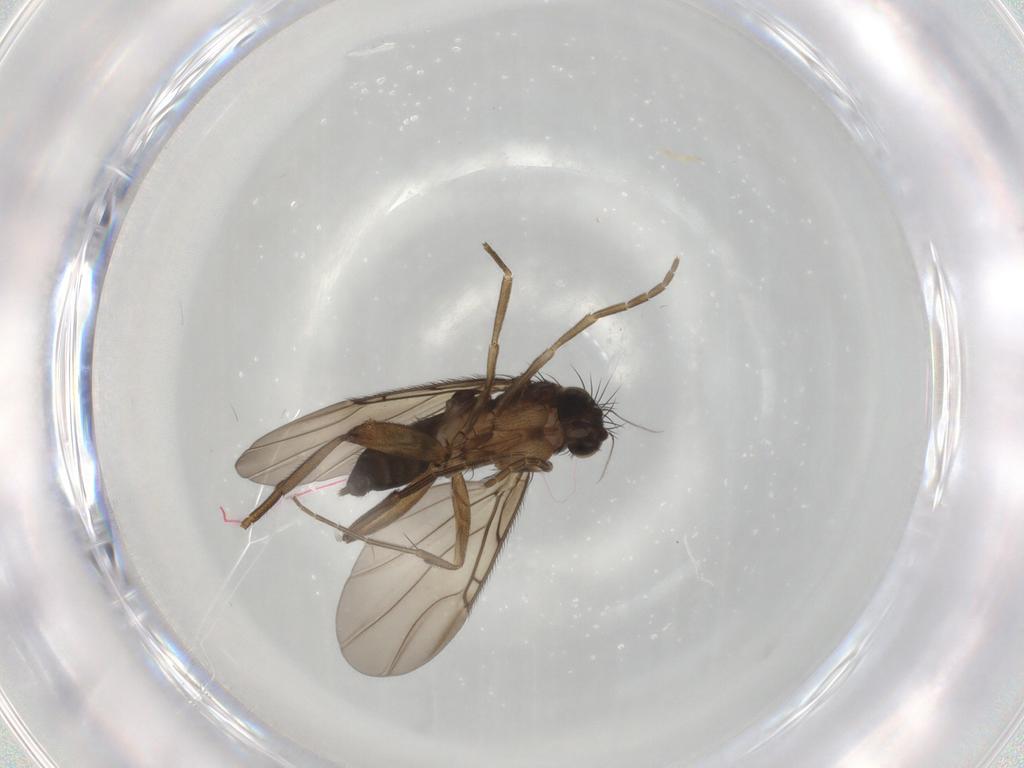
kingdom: Animalia
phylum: Arthropoda
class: Insecta
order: Diptera
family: Phoridae
